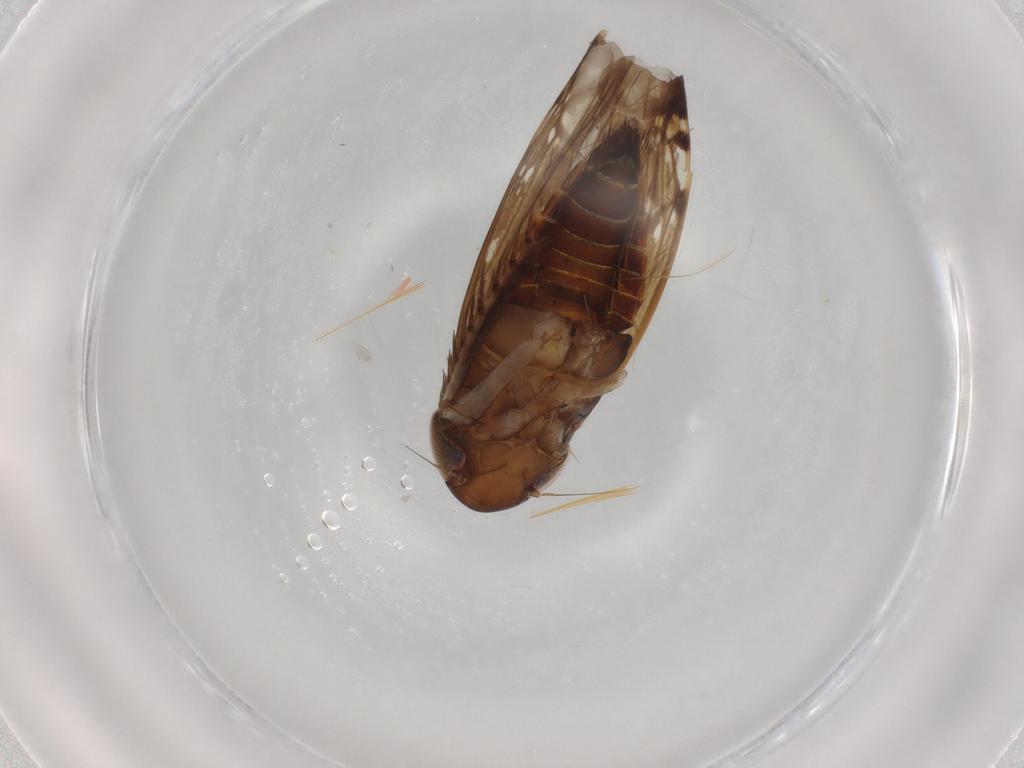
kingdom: Animalia
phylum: Arthropoda
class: Insecta
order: Hemiptera
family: Cicadellidae
